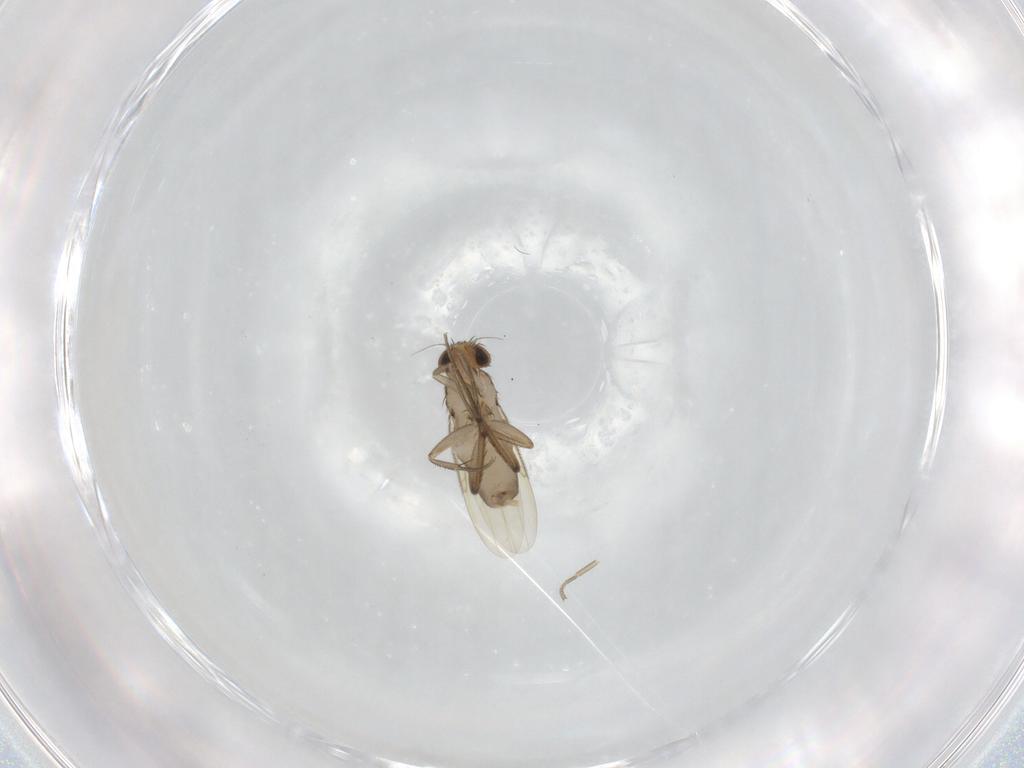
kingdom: Animalia
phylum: Arthropoda
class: Insecta
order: Diptera
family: Phoridae
